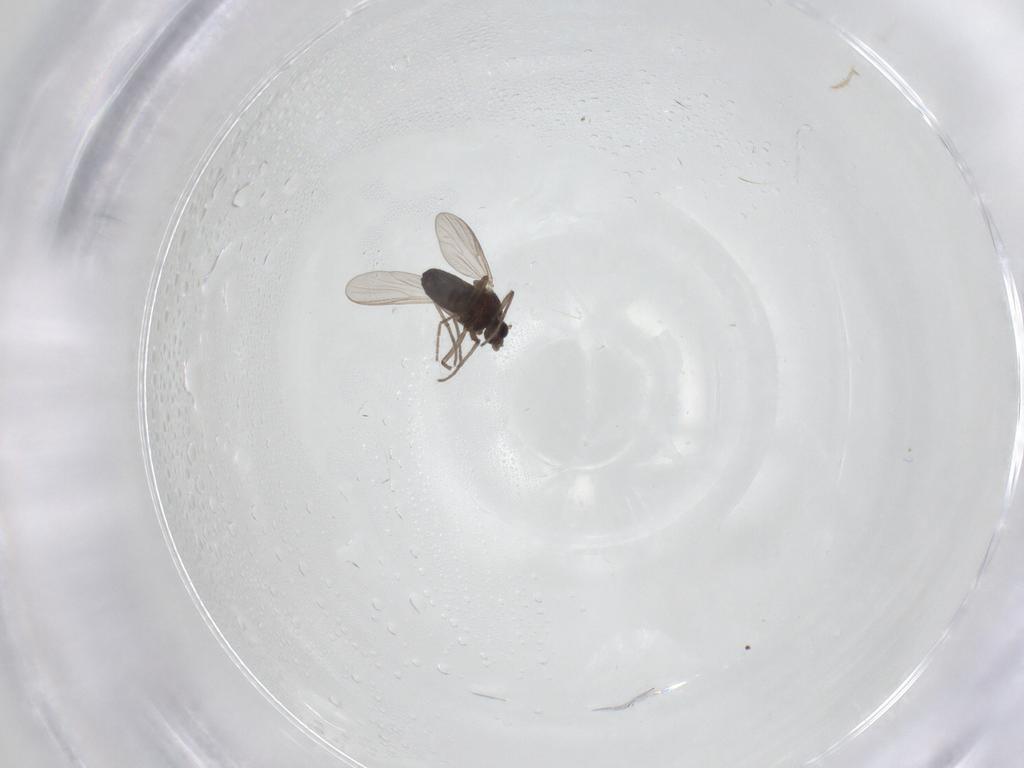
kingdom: Animalia
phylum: Arthropoda
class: Insecta
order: Diptera
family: Chironomidae
